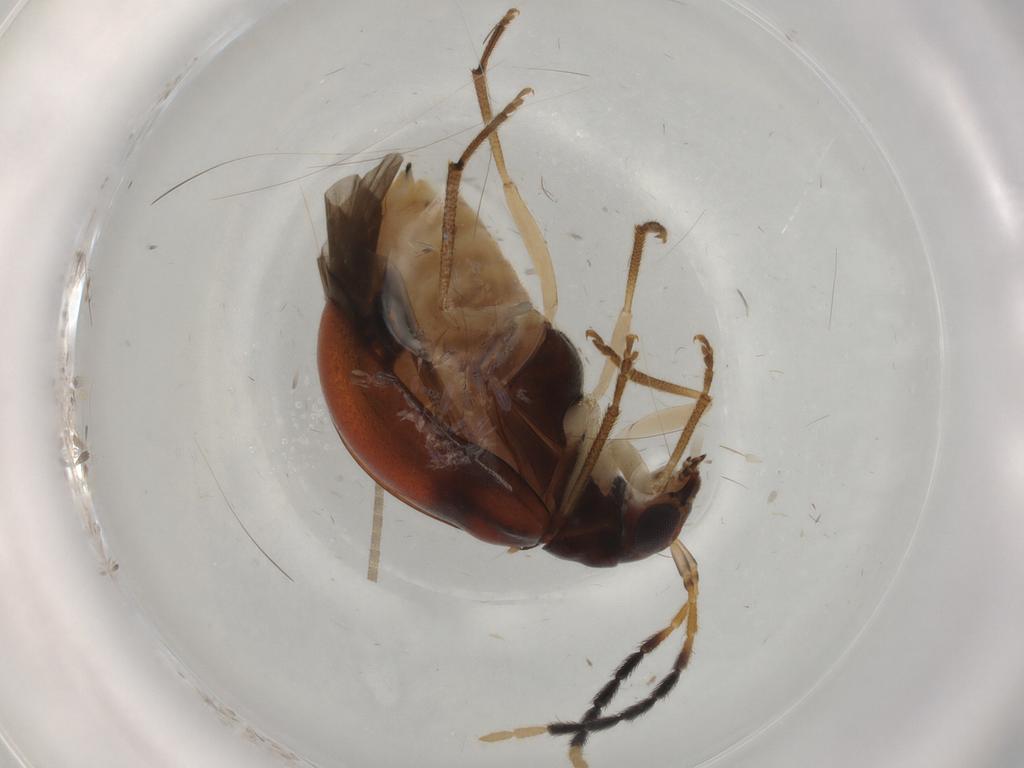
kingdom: Animalia
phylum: Arthropoda
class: Insecta
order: Coleoptera
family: Chrysomelidae
